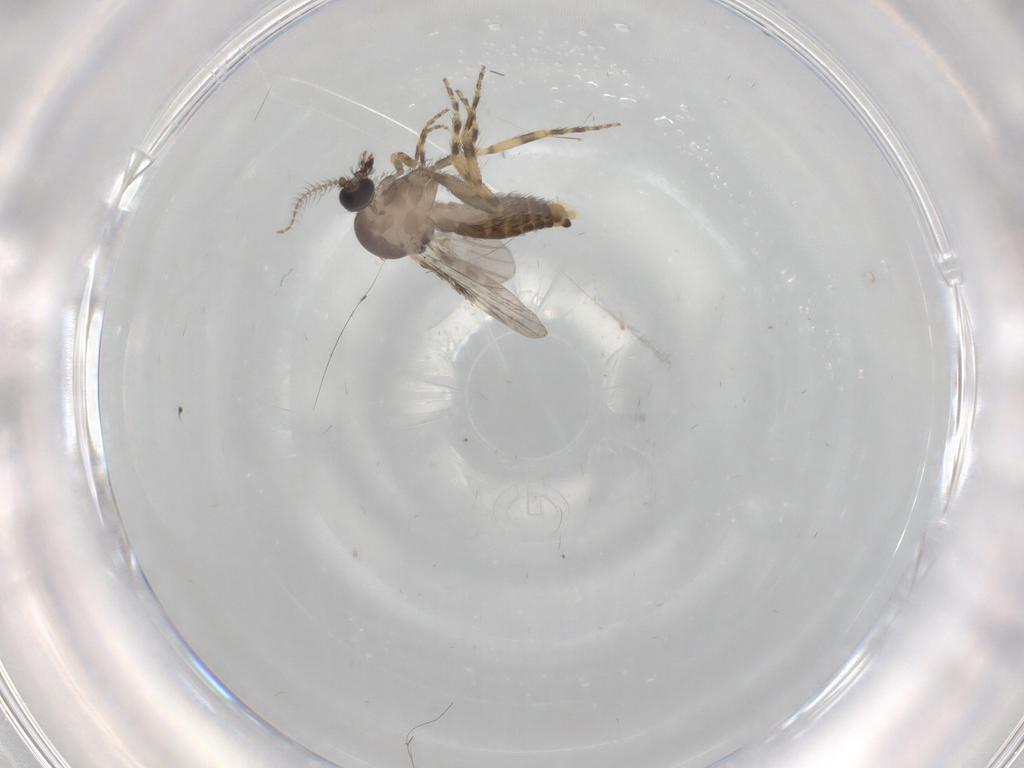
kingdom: Animalia
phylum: Arthropoda
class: Insecta
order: Diptera
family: Ceratopogonidae
